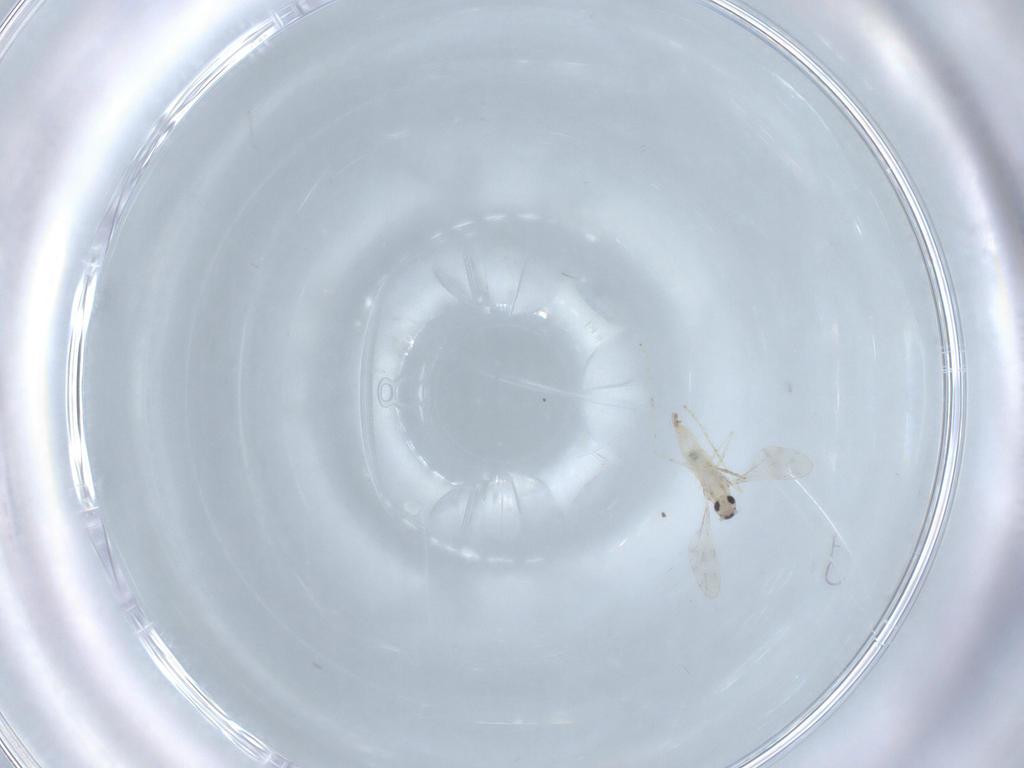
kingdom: Animalia
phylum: Arthropoda
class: Insecta
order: Diptera
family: Cecidomyiidae
